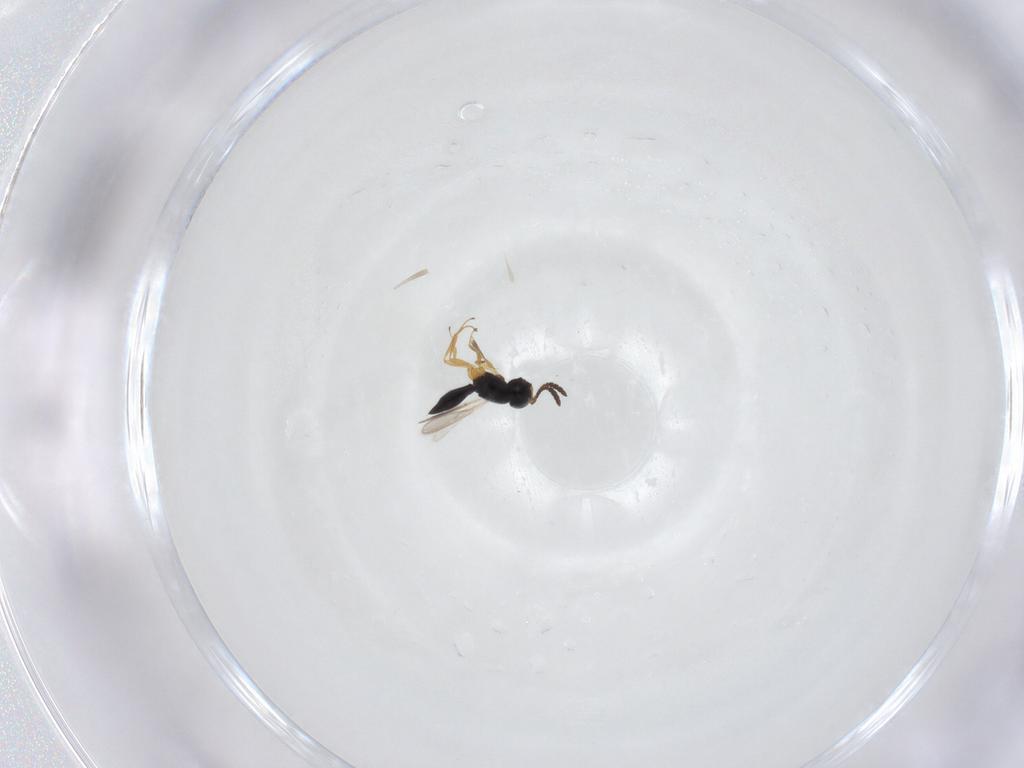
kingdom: Animalia
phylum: Arthropoda
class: Insecta
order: Hymenoptera
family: Scelionidae
